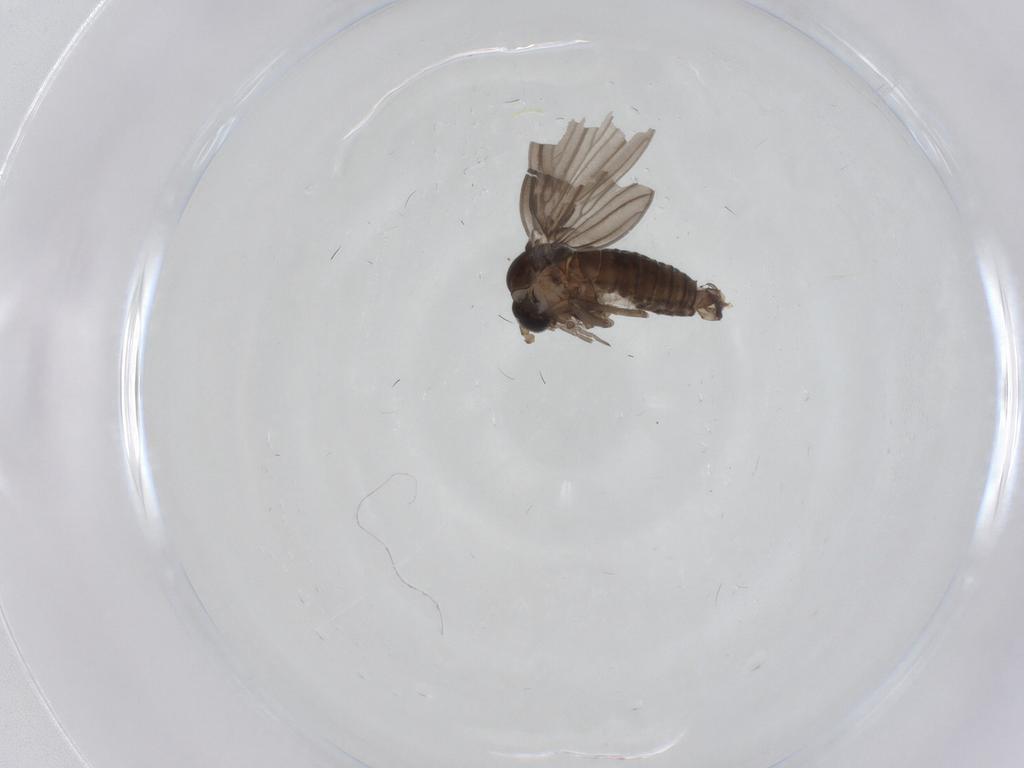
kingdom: Animalia
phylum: Arthropoda
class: Insecta
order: Diptera
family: Psychodidae
